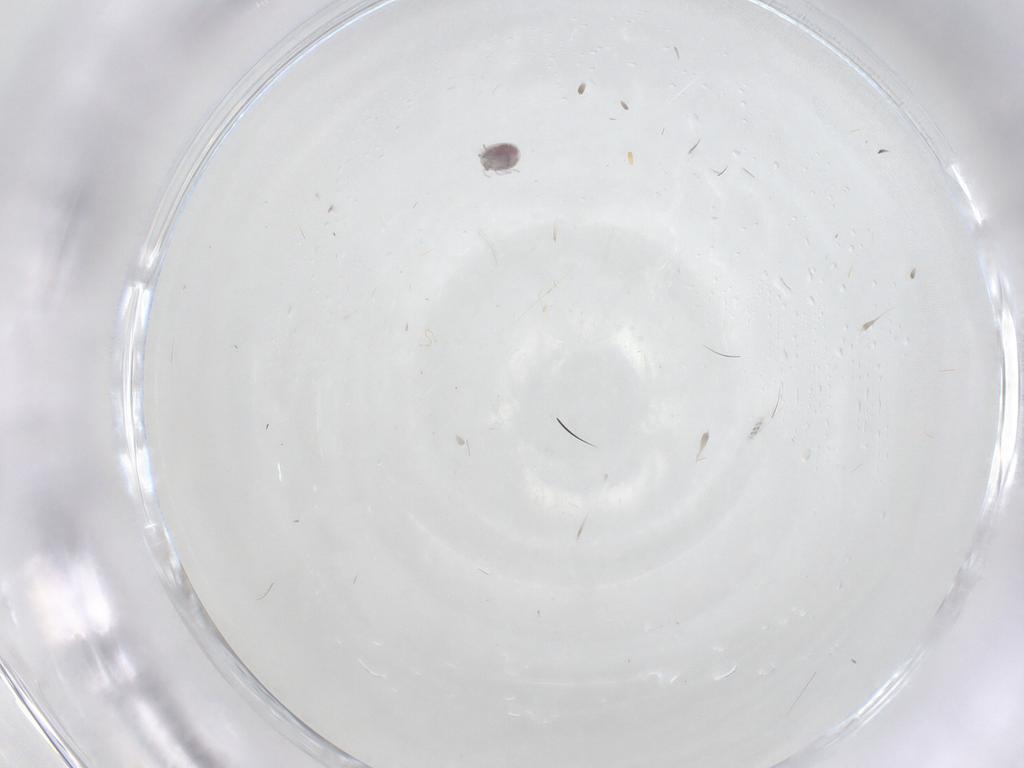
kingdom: Animalia
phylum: Arthropoda
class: Arachnida
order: Trombidiformes
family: Pionidae
